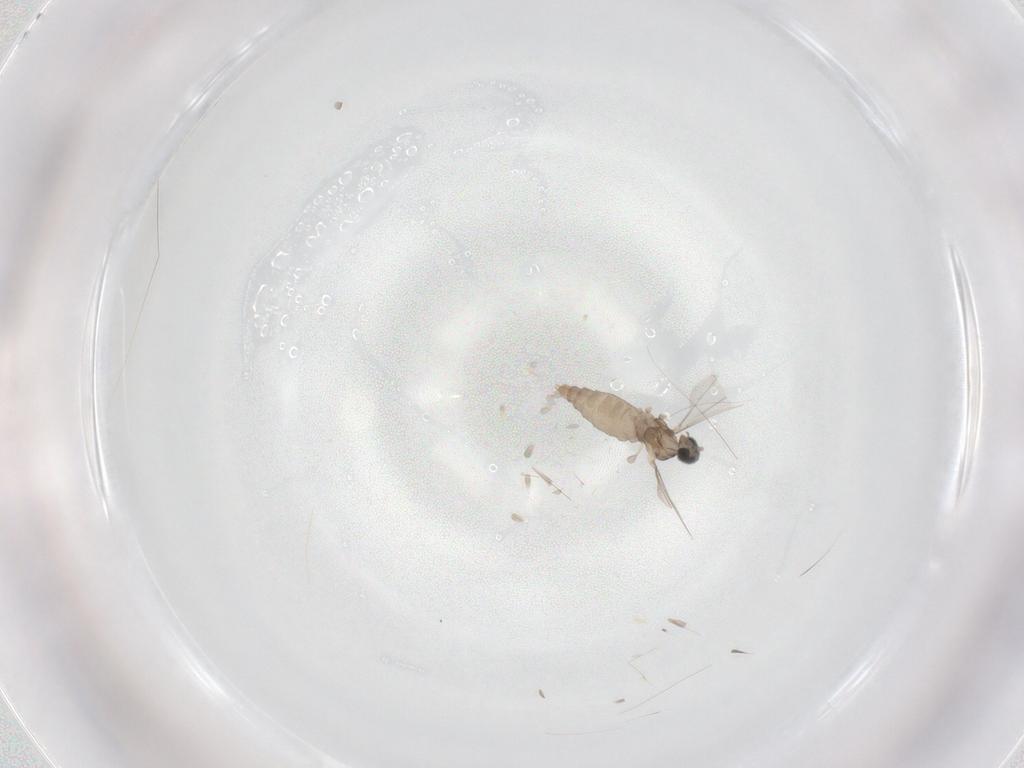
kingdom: Animalia
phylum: Arthropoda
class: Insecta
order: Diptera
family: Cecidomyiidae
